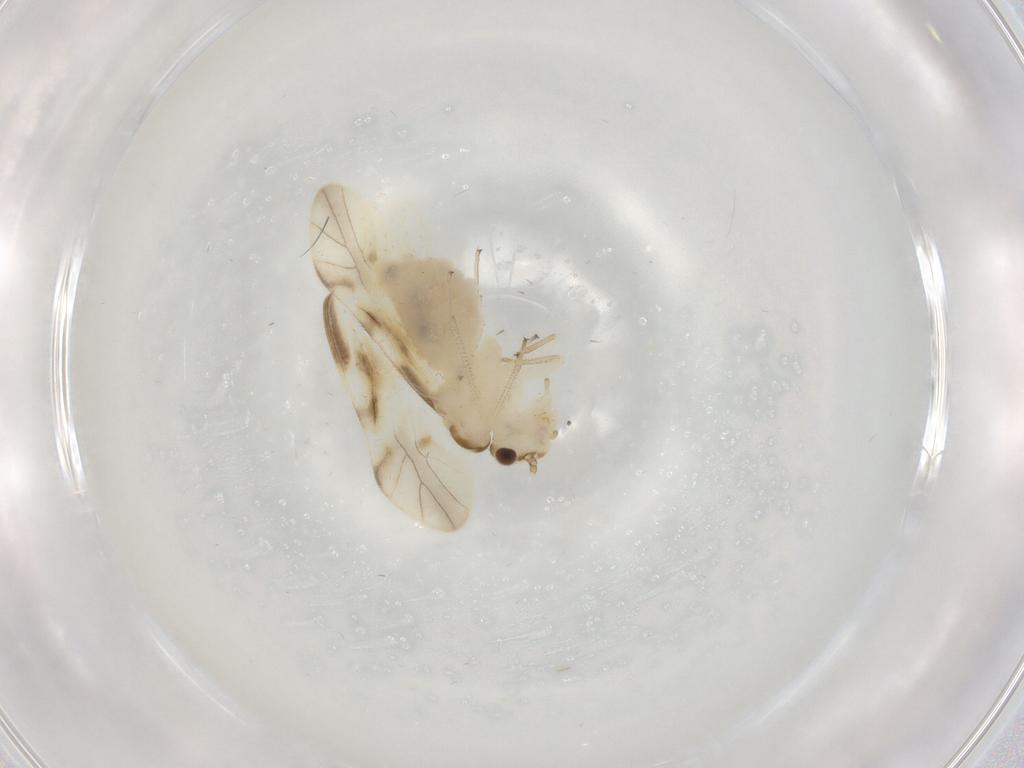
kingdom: Animalia
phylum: Arthropoda
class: Insecta
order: Psocodea
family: Caeciliusidae
